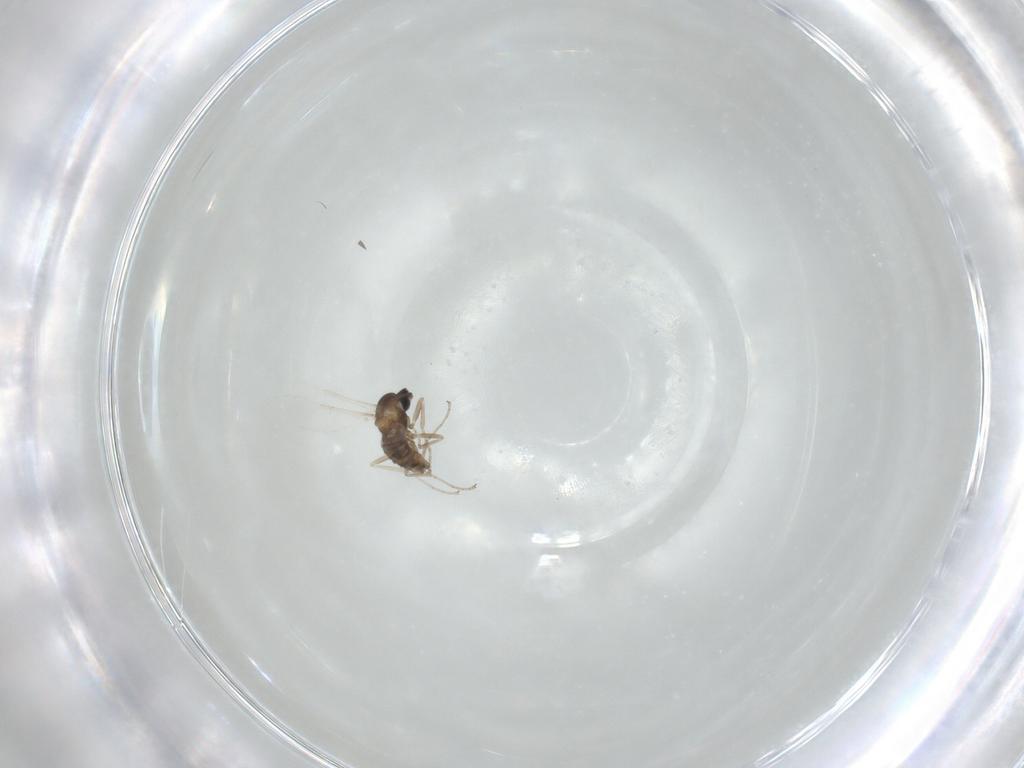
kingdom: Animalia
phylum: Arthropoda
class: Insecta
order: Diptera
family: Cecidomyiidae
